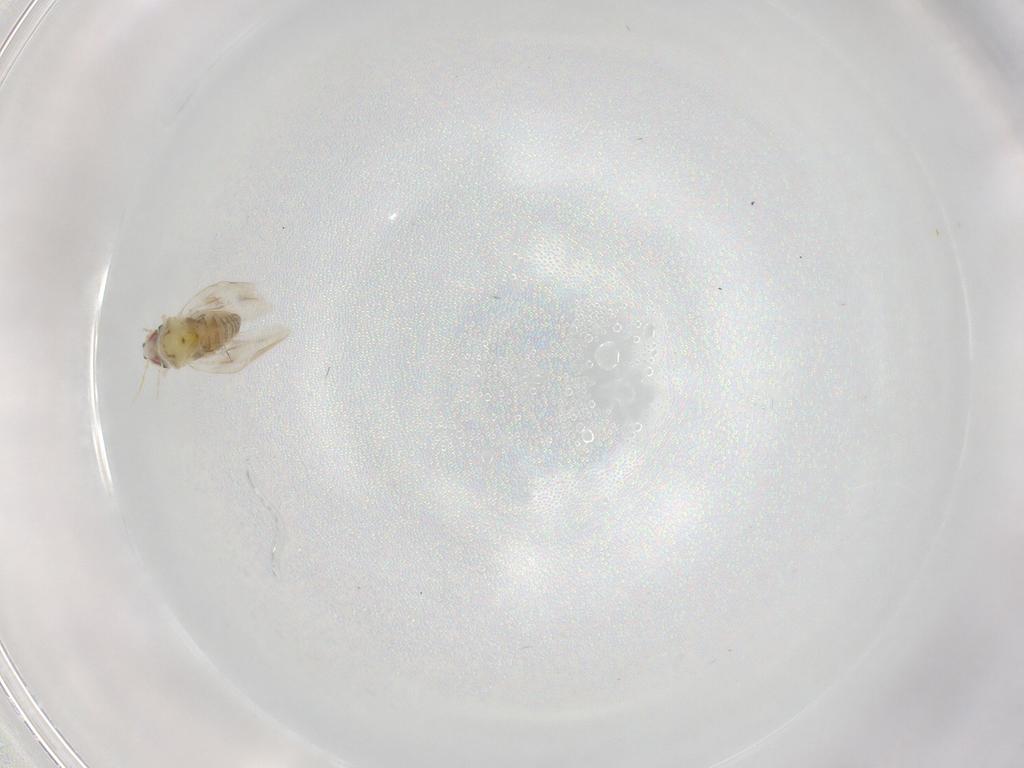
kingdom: Animalia
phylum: Arthropoda
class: Insecta
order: Hemiptera
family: Aleyrodidae
